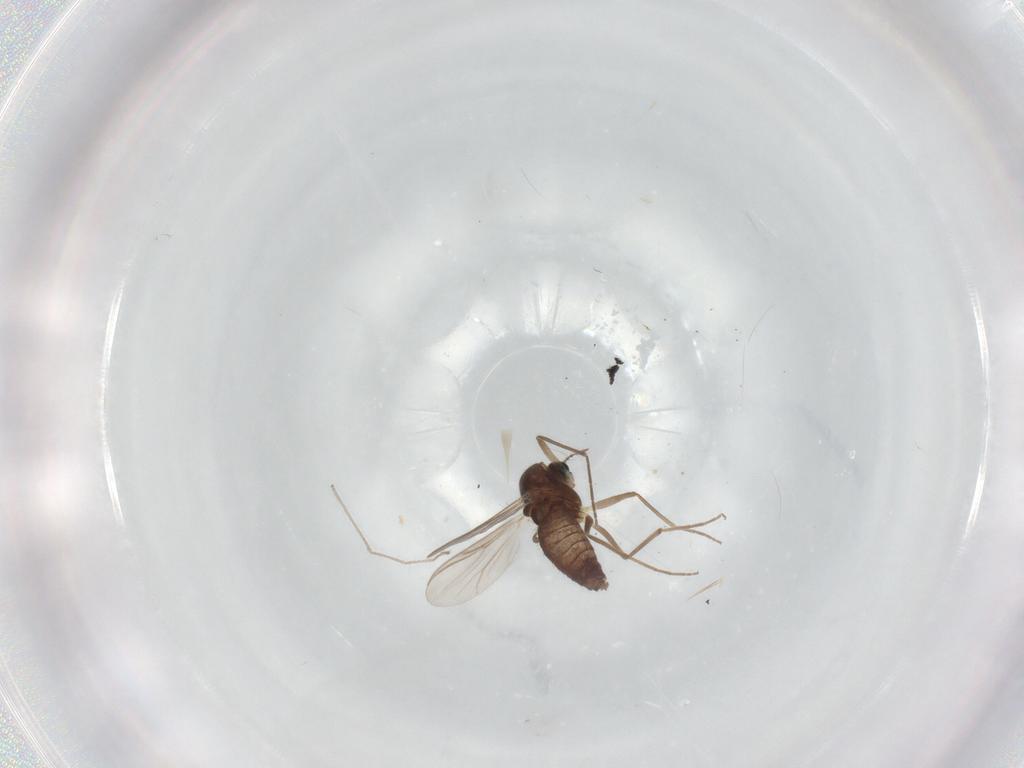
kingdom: Animalia
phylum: Arthropoda
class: Insecta
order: Diptera
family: Chironomidae
